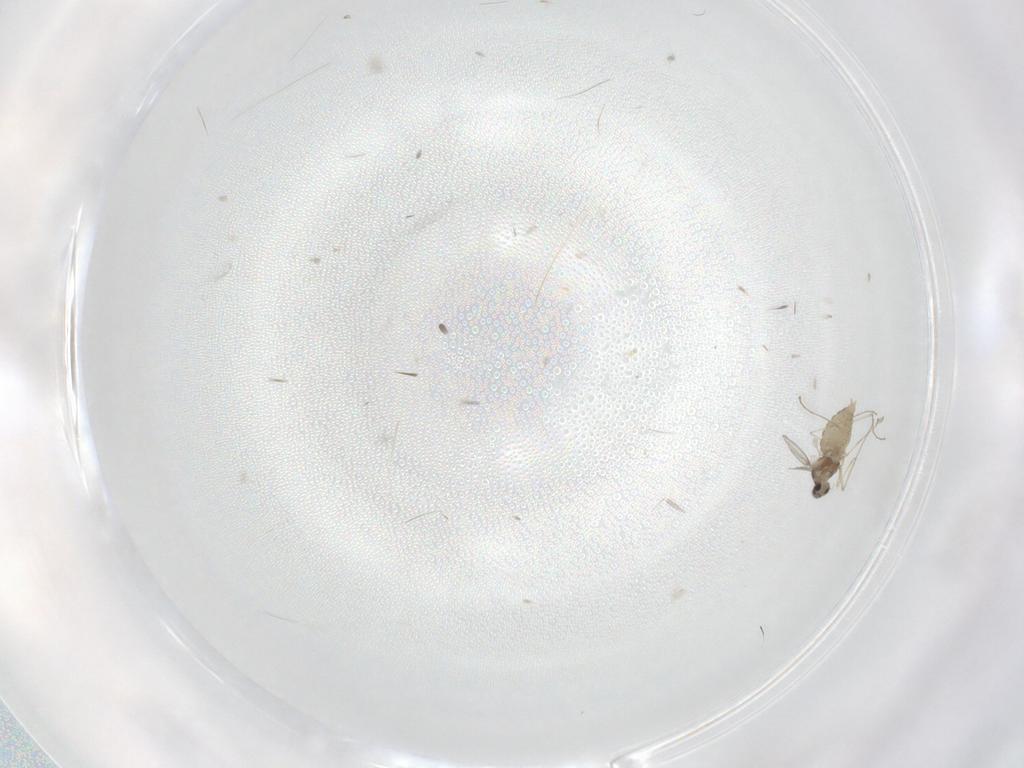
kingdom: Animalia
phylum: Arthropoda
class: Insecta
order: Diptera
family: Cecidomyiidae
